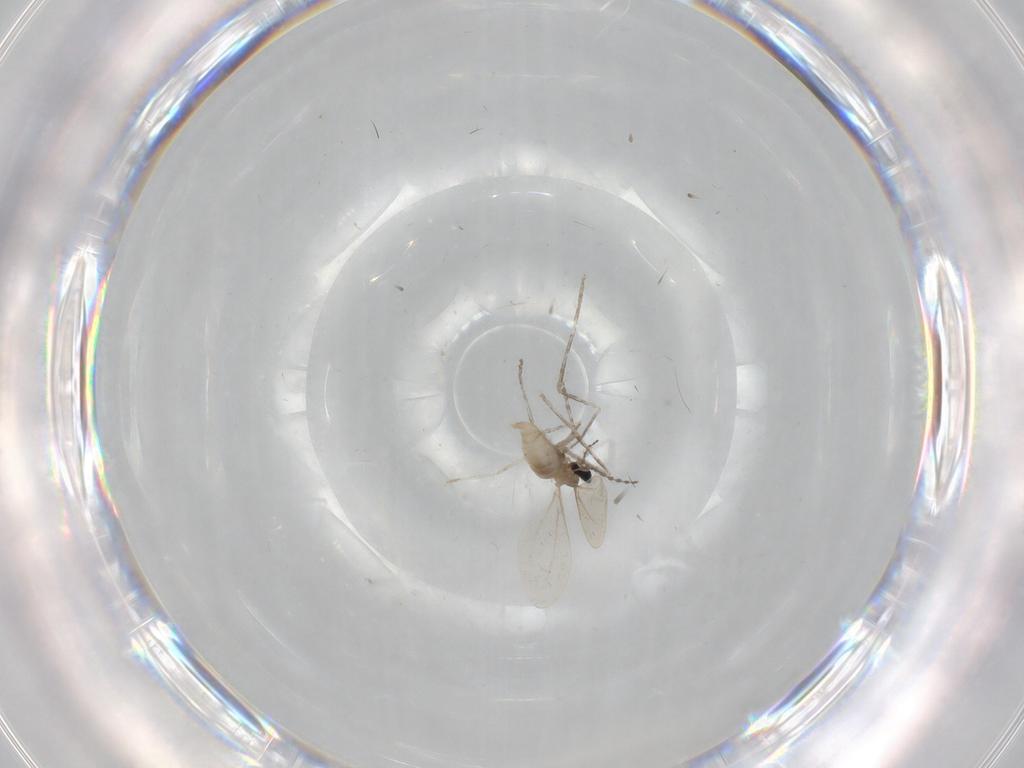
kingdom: Animalia
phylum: Arthropoda
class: Insecta
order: Diptera
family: Cecidomyiidae
